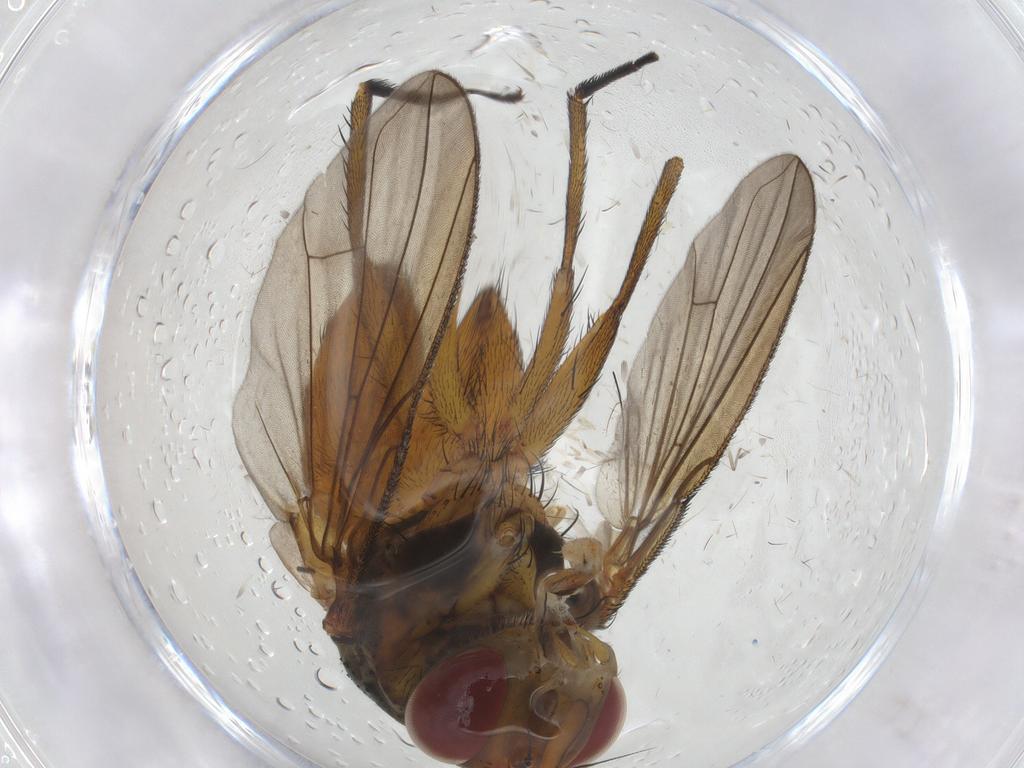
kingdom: Animalia
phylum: Arthropoda
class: Insecta
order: Diptera
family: Tachinidae
